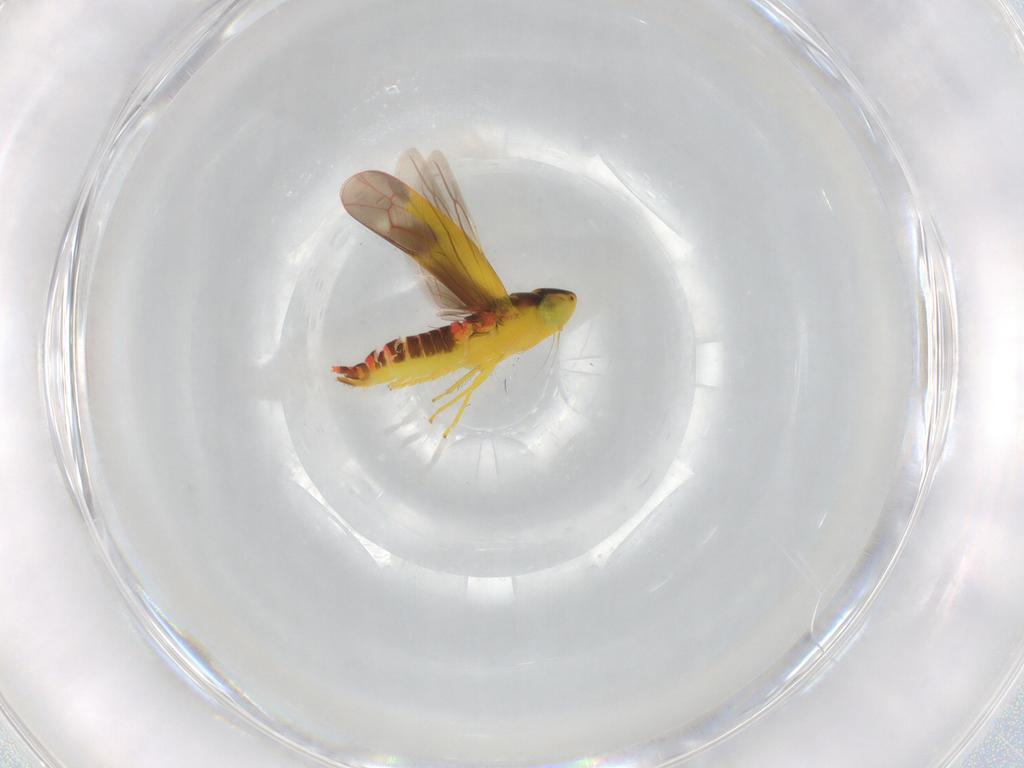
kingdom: Animalia
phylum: Arthropoda
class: Insecta
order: Hemiptera
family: Cicadellidae
